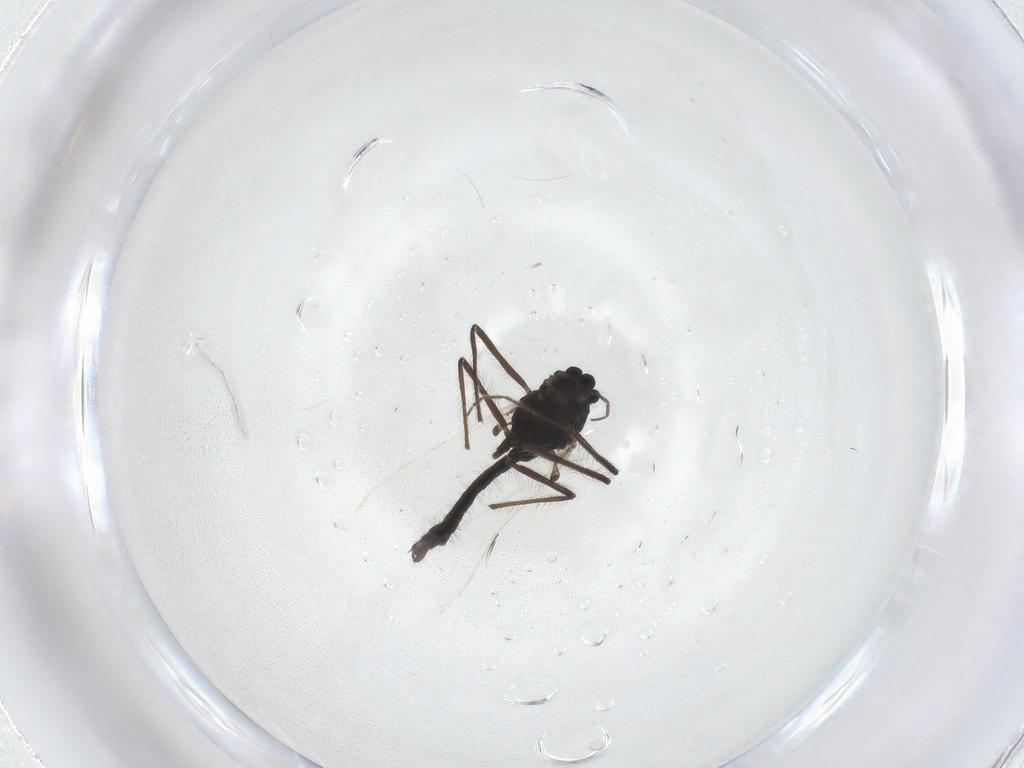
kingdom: Animalia
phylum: Arthropoda
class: Insecta
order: Diptera
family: Chironomidae
